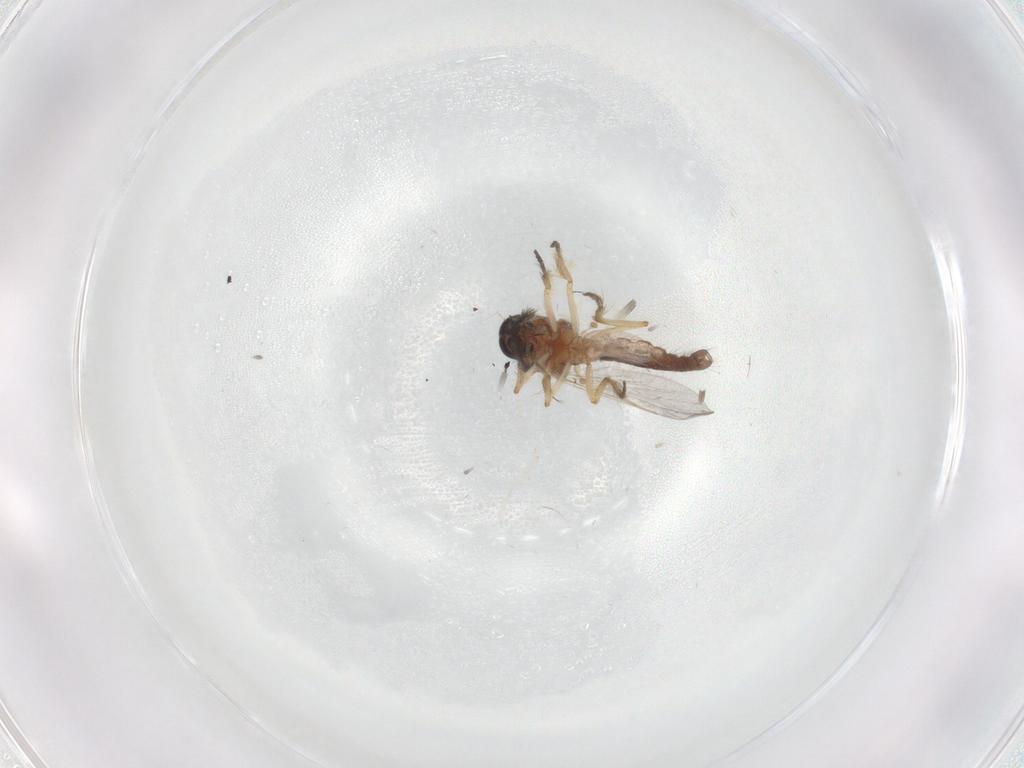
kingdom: Animalia
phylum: Arthropoda
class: Insecta
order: Diptera
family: Ceratopogonidae
